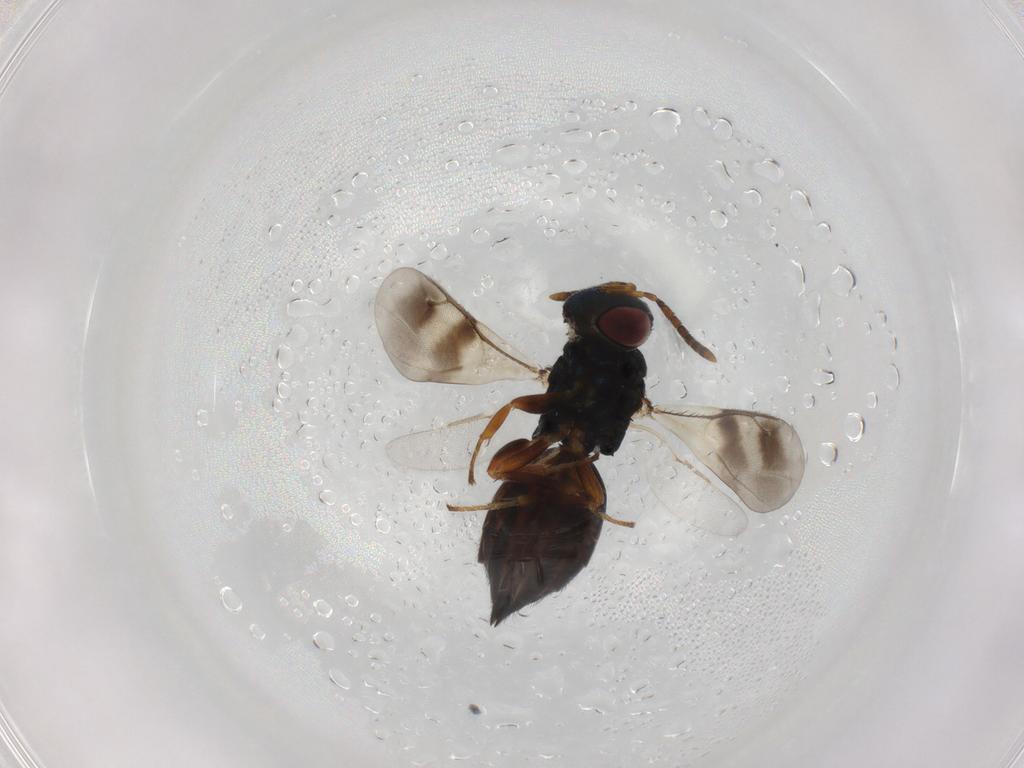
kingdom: Animalia
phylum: Arthropoda
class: Insecta
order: Hymenoptera
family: Pteromalidae
